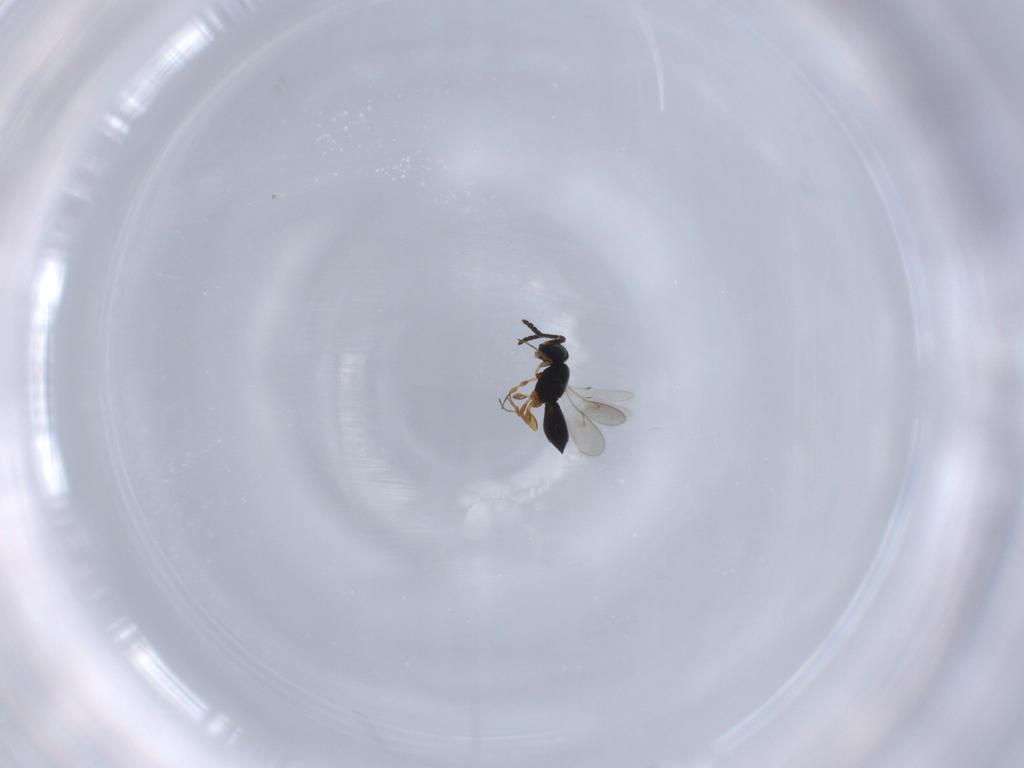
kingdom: Animalia
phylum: Arthropoda
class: Insecta
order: Hymenoptera
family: Scelionidae
